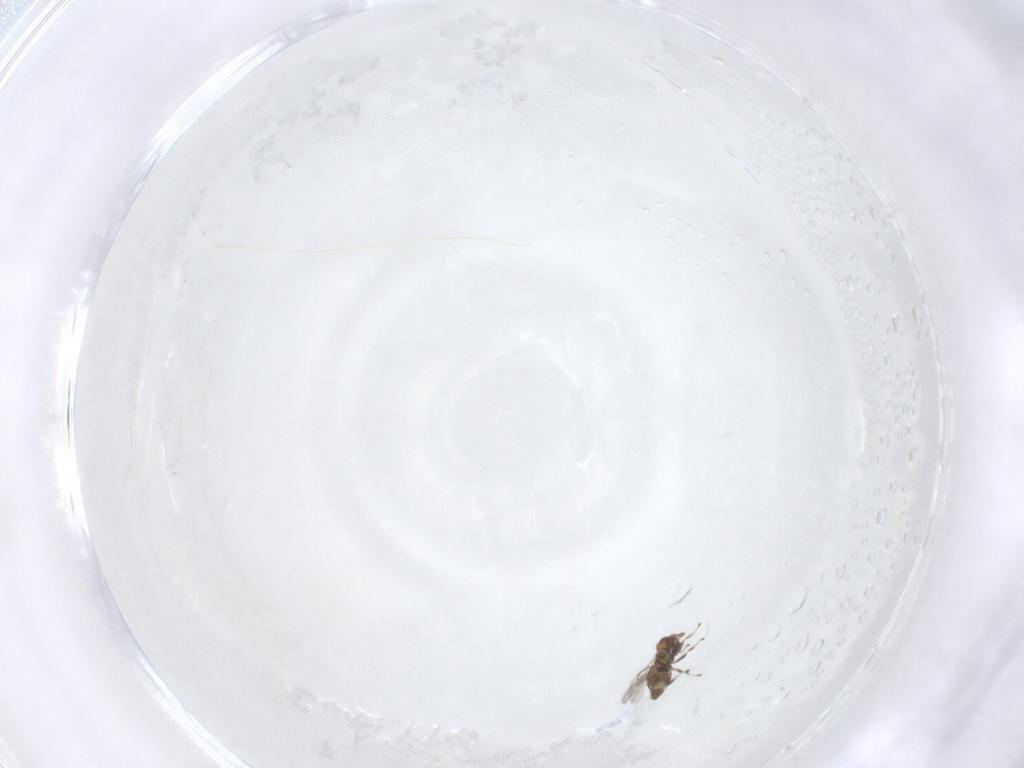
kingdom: Animalia
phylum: Arthropoda
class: Insecta
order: Hymenoptera
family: Trichogrammatidae
